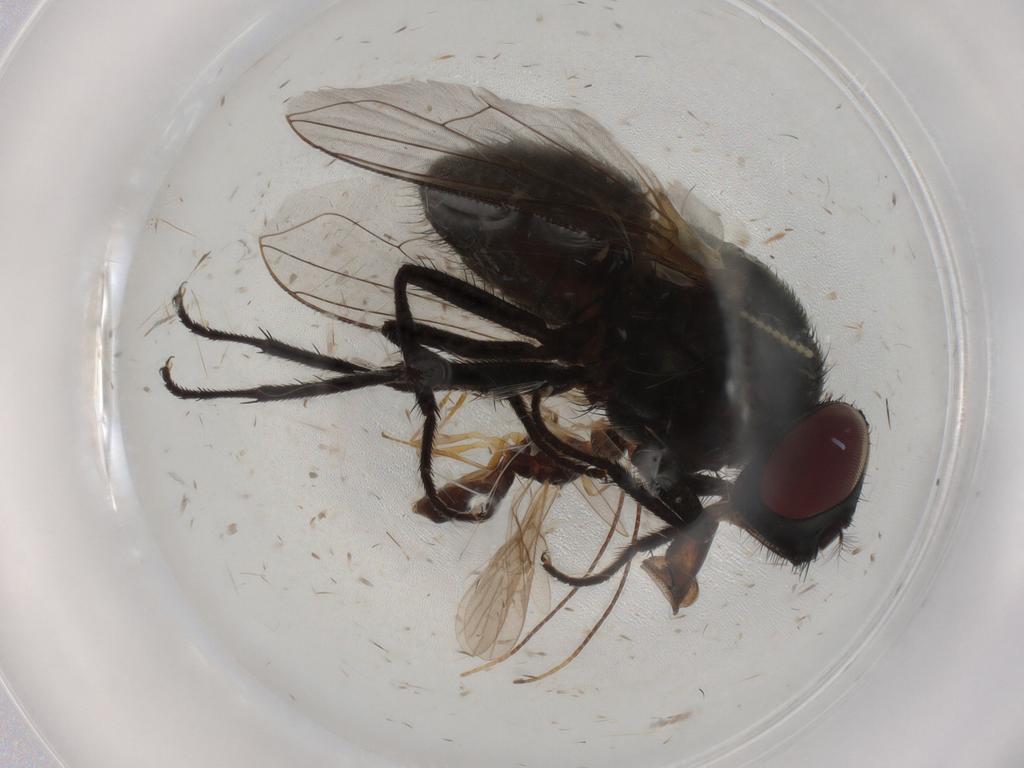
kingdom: Animalia
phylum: Arthropoda
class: Insecta
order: Diptera
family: Muscidae
